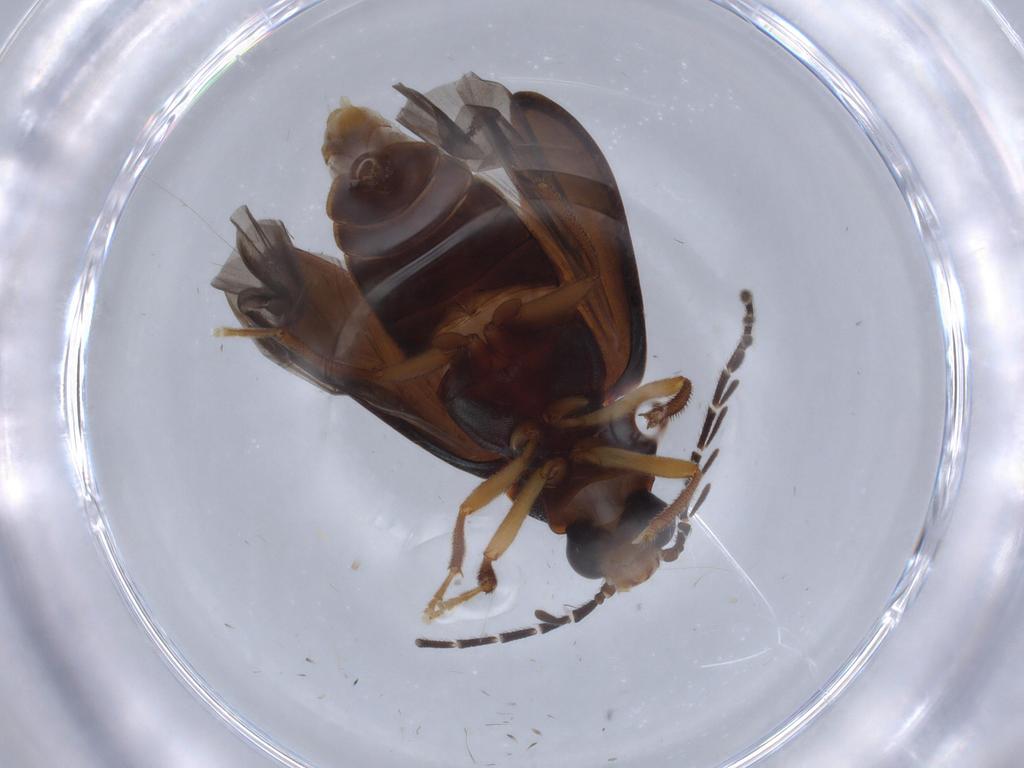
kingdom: Animalia
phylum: Arthropoda
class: Insecta
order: Coleoptera
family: Ptilodactylidae
